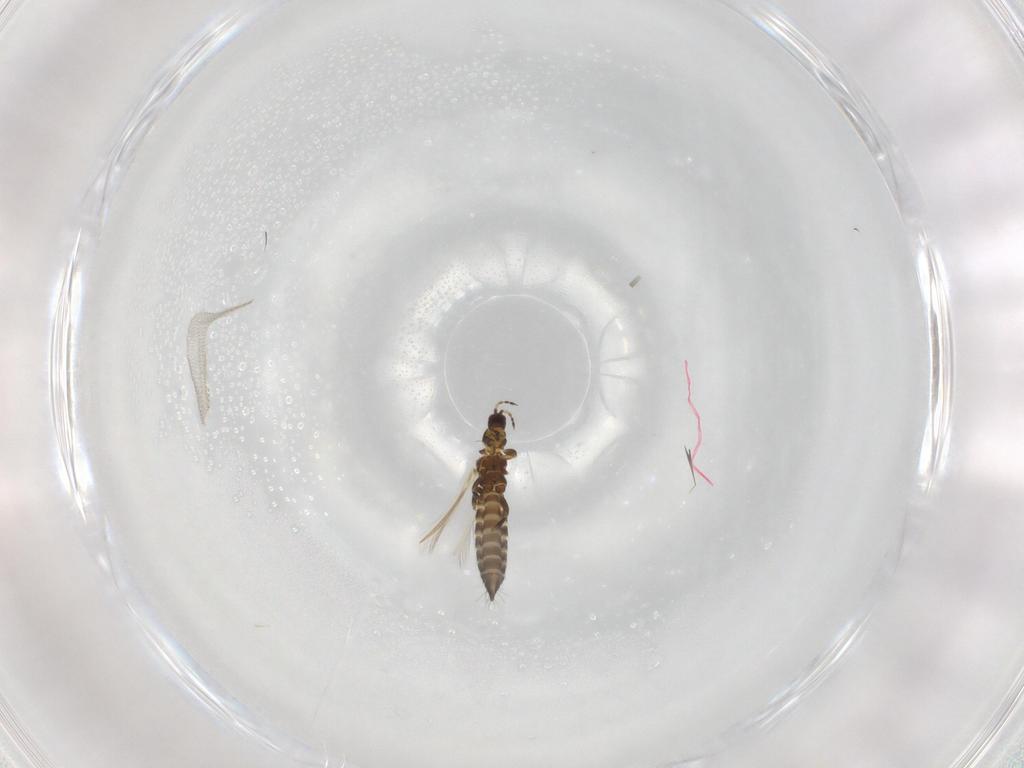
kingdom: Animalia
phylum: Arthropoda
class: Insecta
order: Thysanoptera
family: Thripidae
